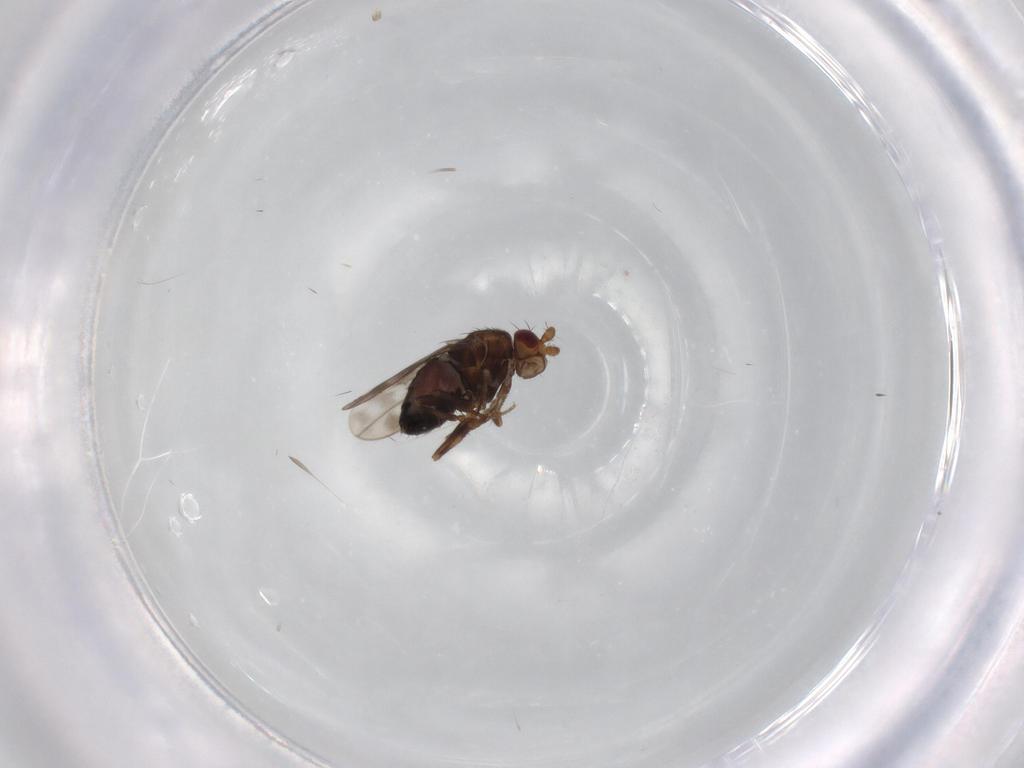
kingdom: Animalia
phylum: Arthropoda
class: Insecta
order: Diptera
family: Sphaeroceridae
